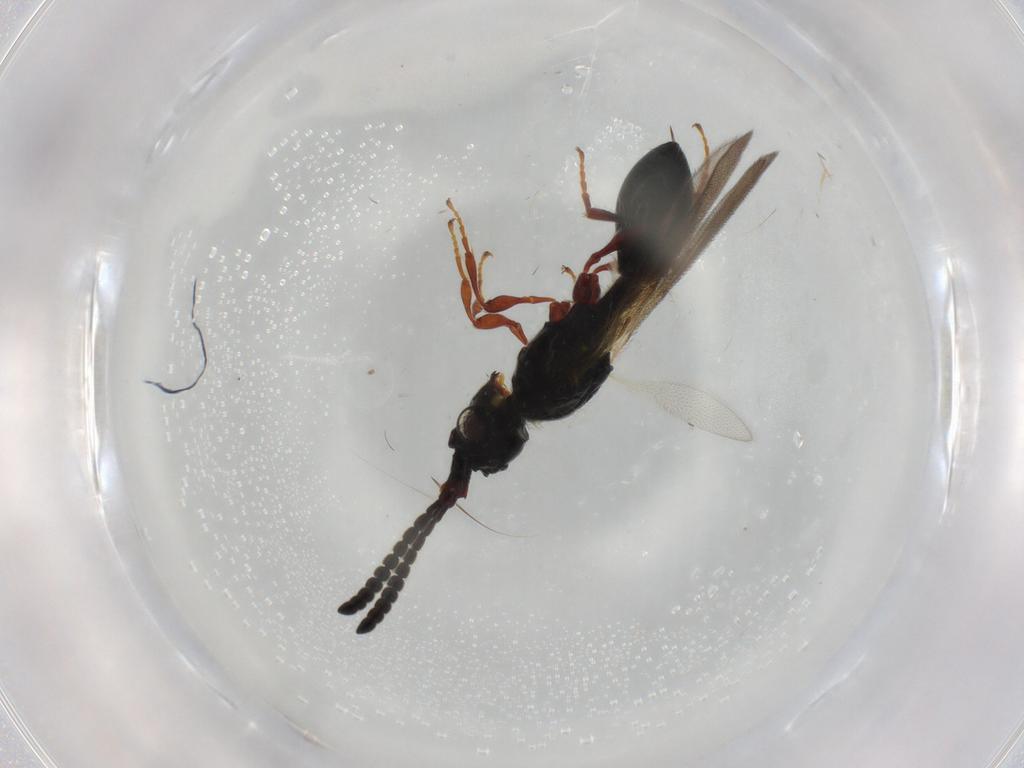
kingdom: Animalia
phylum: Arthropoda
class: Insecta
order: Hymenoptera
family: Diapriidae
